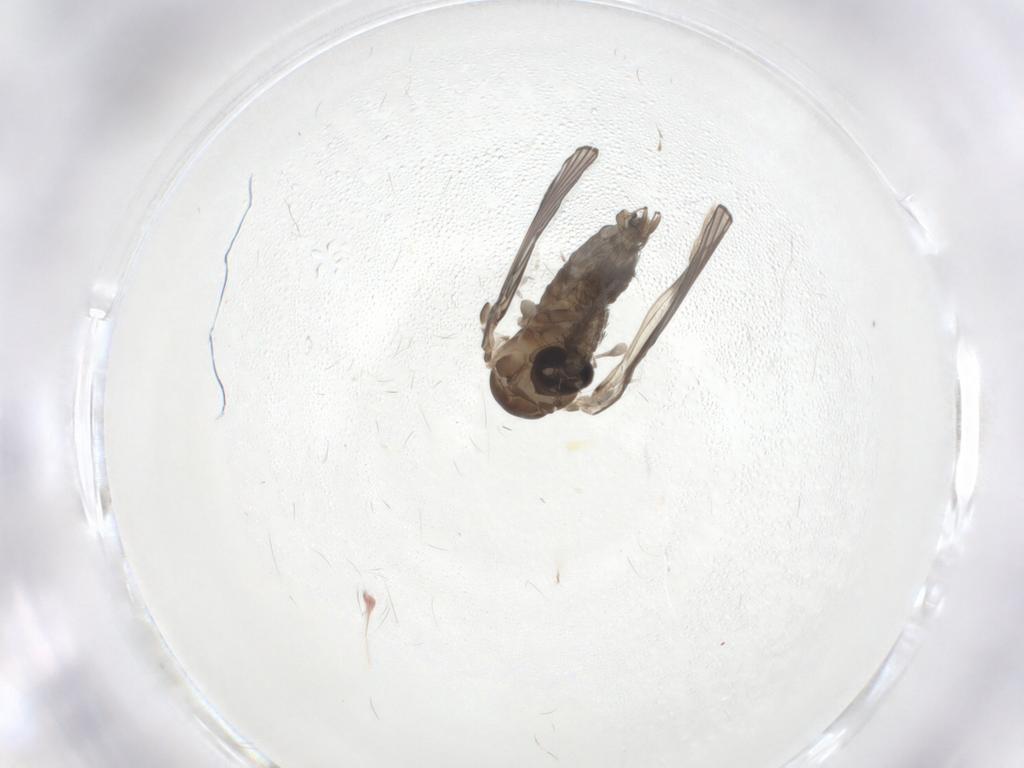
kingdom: Animalia
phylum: Arthropoda
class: Insecta
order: Diptera
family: Psychodidae
